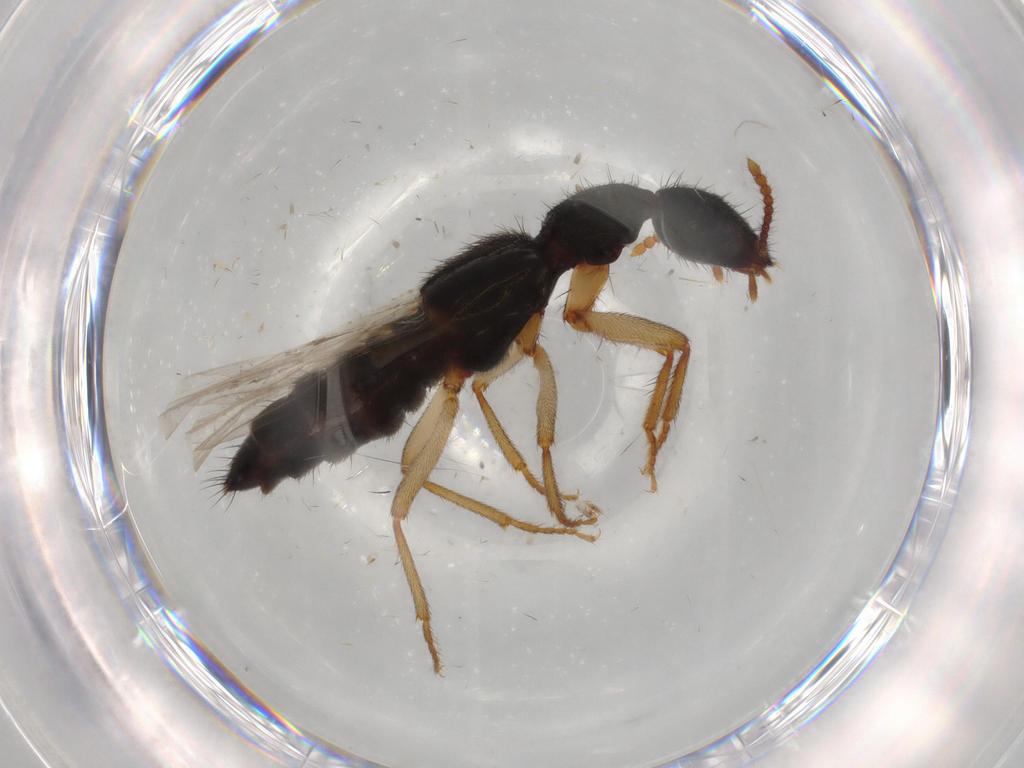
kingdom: Animalia
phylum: Arthropoda
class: Insecta
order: Coleoptera
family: Staphylinidae
